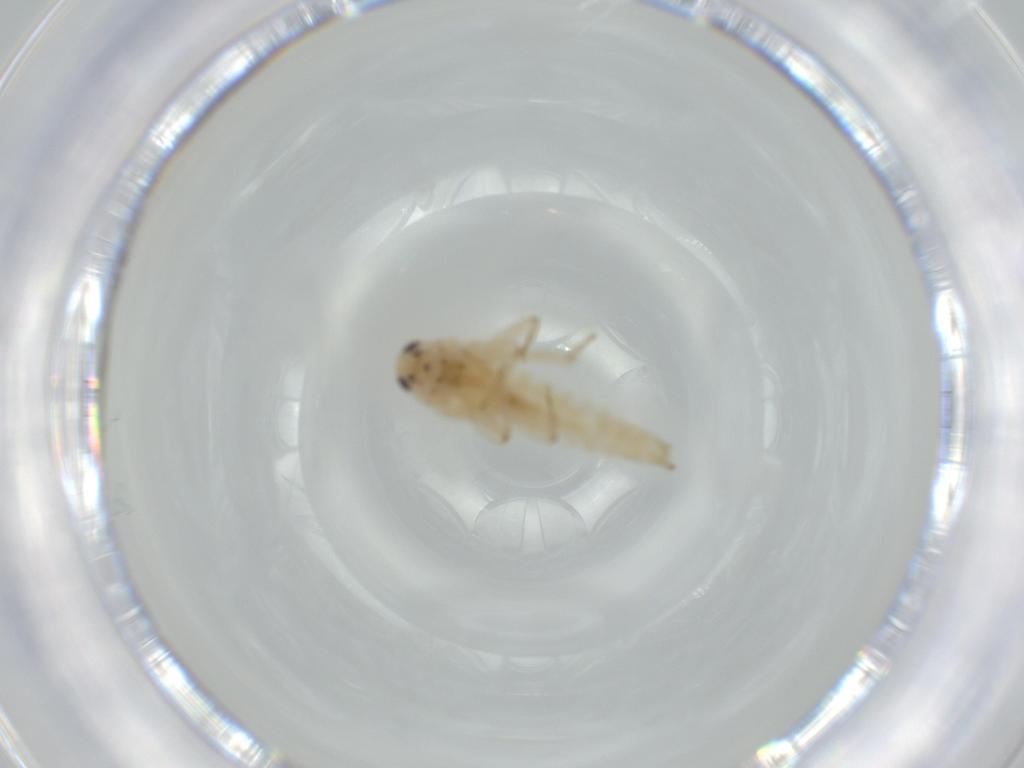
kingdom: Animalia
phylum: Arthropoda
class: Insecta
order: Ephemeroptera
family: Baetidae
